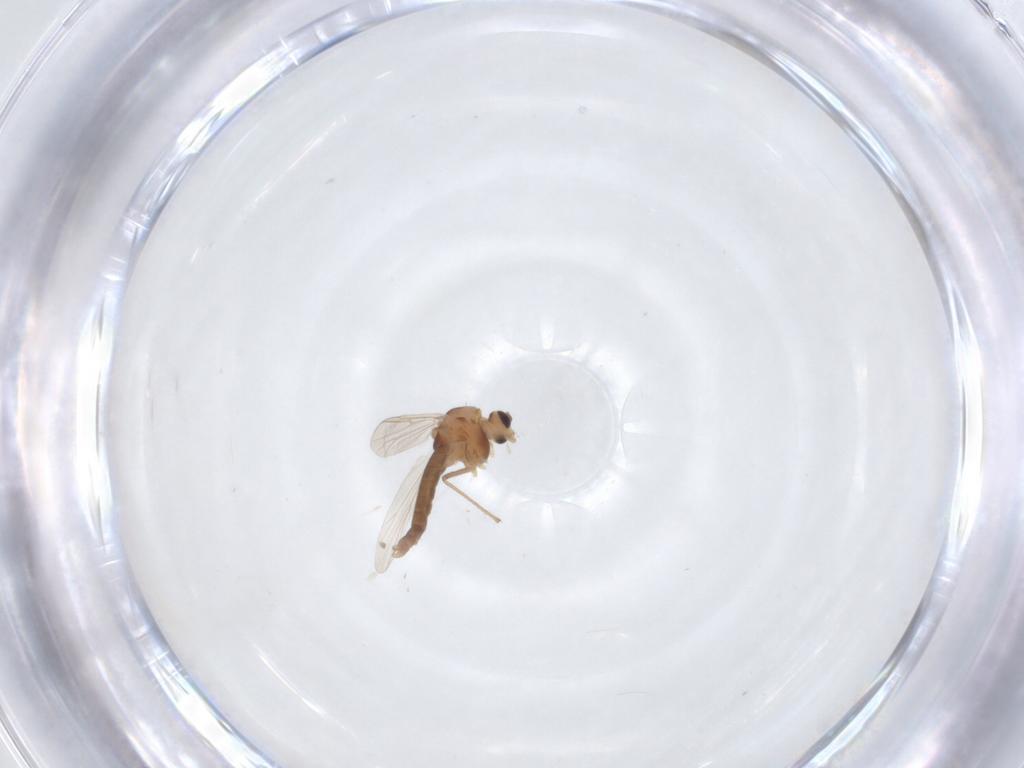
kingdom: Animalia
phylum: Arthropoda
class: Insecta
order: Diptera
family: Chironomidae
